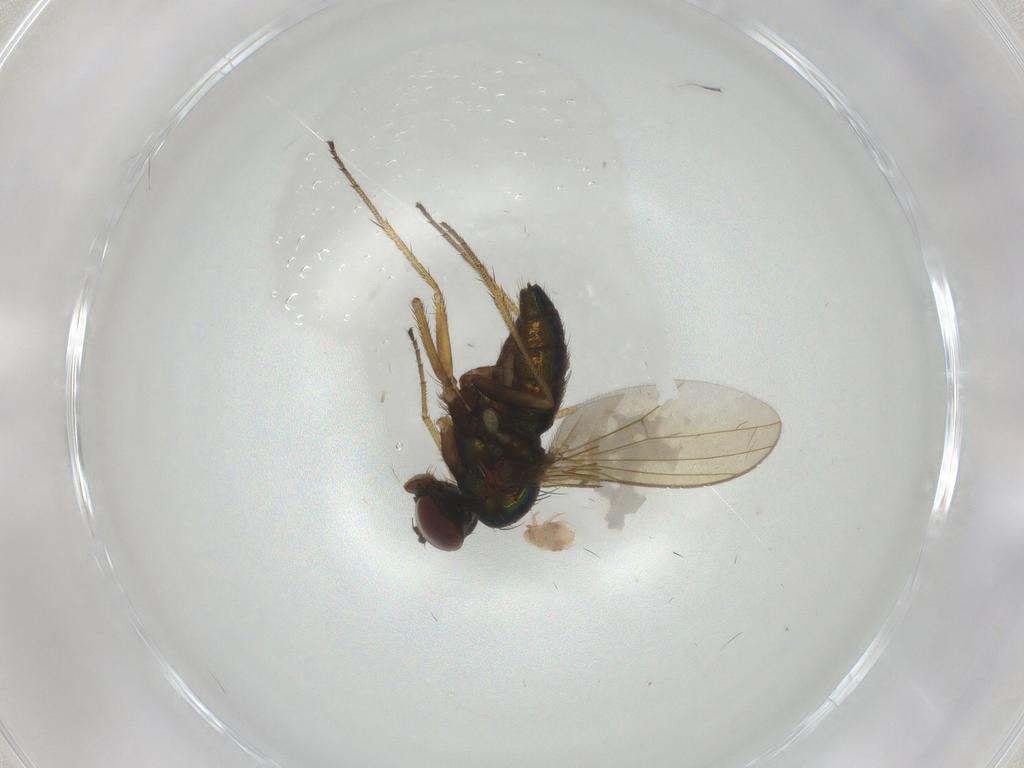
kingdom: Animalia
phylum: Arthropoda
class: Insecta
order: Diptera
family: Dolichopodidae
